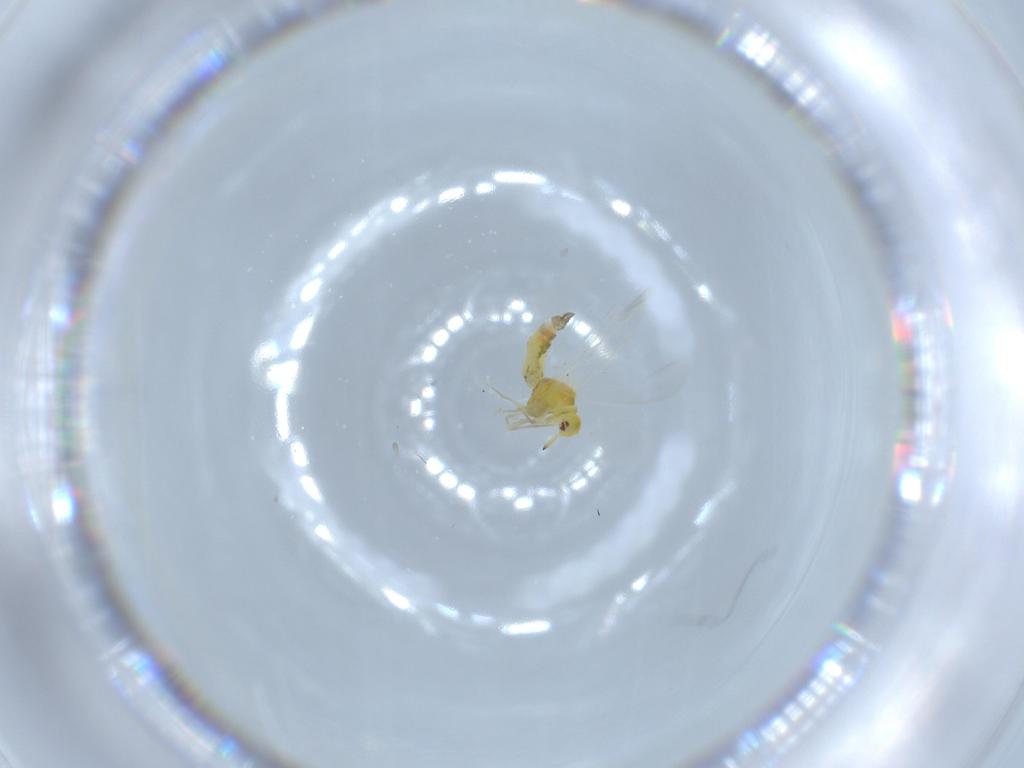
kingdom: Animalia
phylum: Arthropoda
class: Insecta
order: Hemiptera
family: Aleyrodidae
